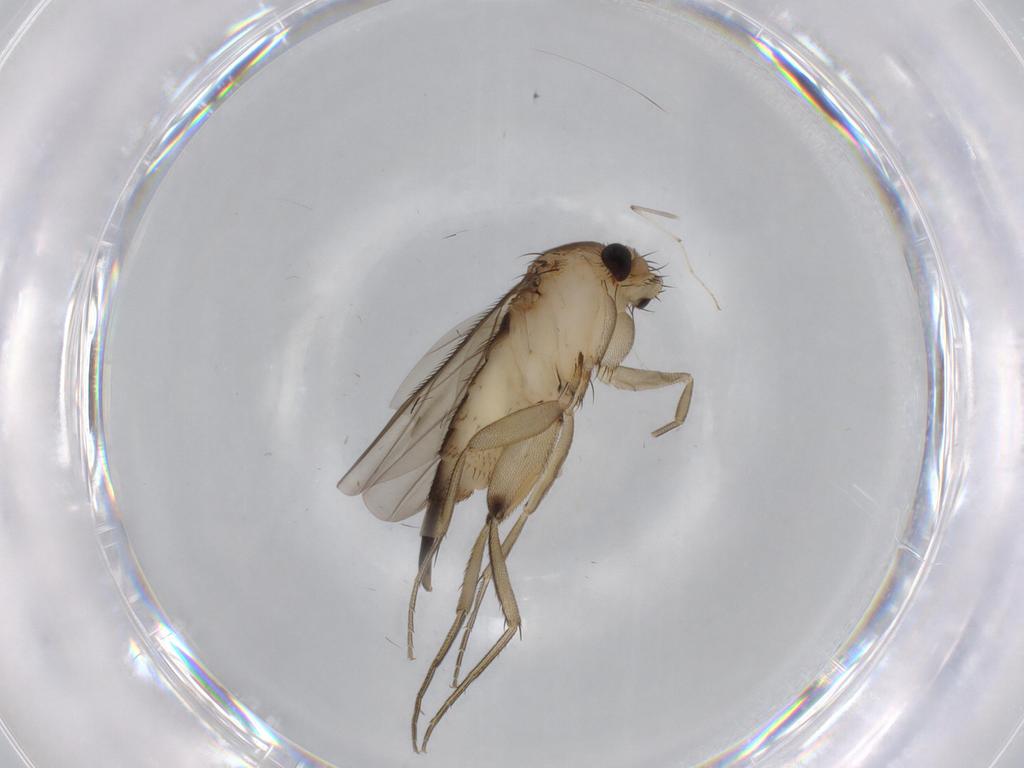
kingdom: Animalia
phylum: Arthropoda
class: Insecta
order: Diptera
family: Phoridae
